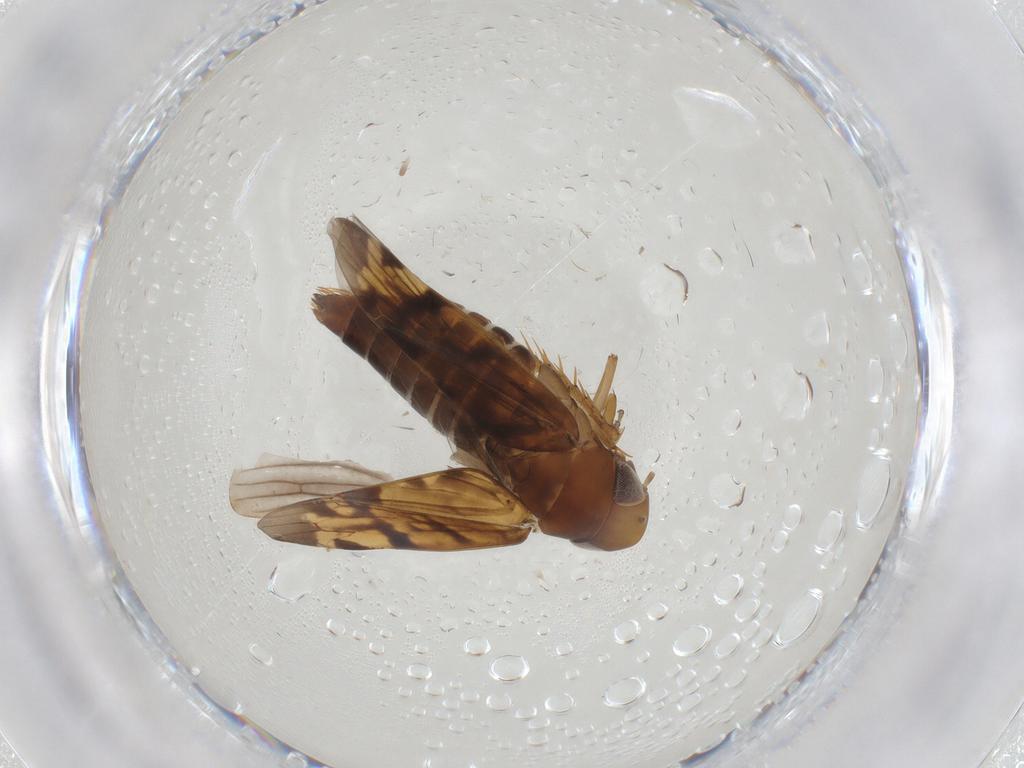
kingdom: Animalia
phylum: Arthropoda
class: Insecta
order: Hemiptera
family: Cicadellidae
